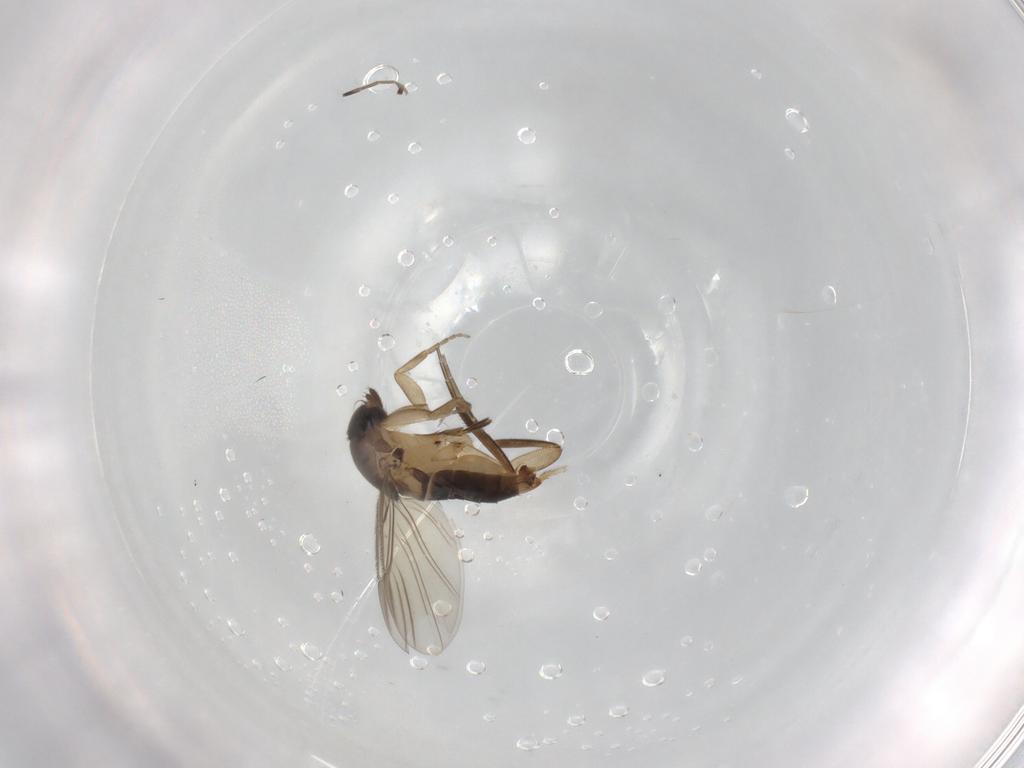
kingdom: Animalia
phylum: Arthropoda
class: Insecta
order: Diptera
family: Phoridae
